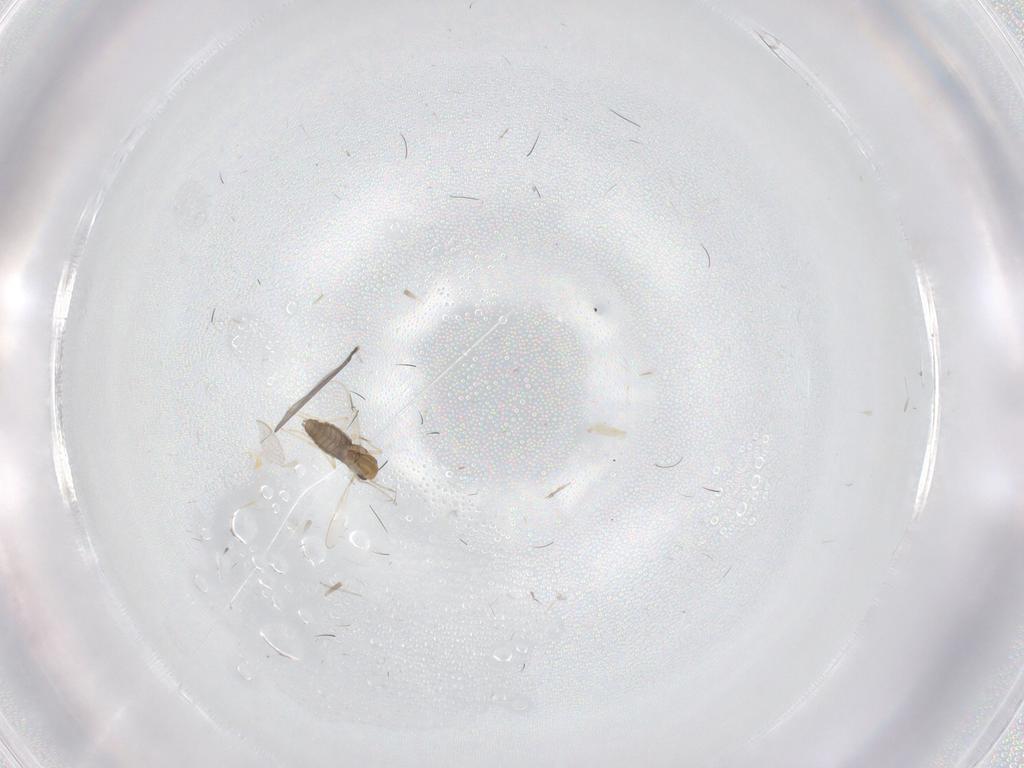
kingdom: Animalia
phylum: Arthropoda
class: Insecta
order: Diptera
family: Cecidomyiidae
